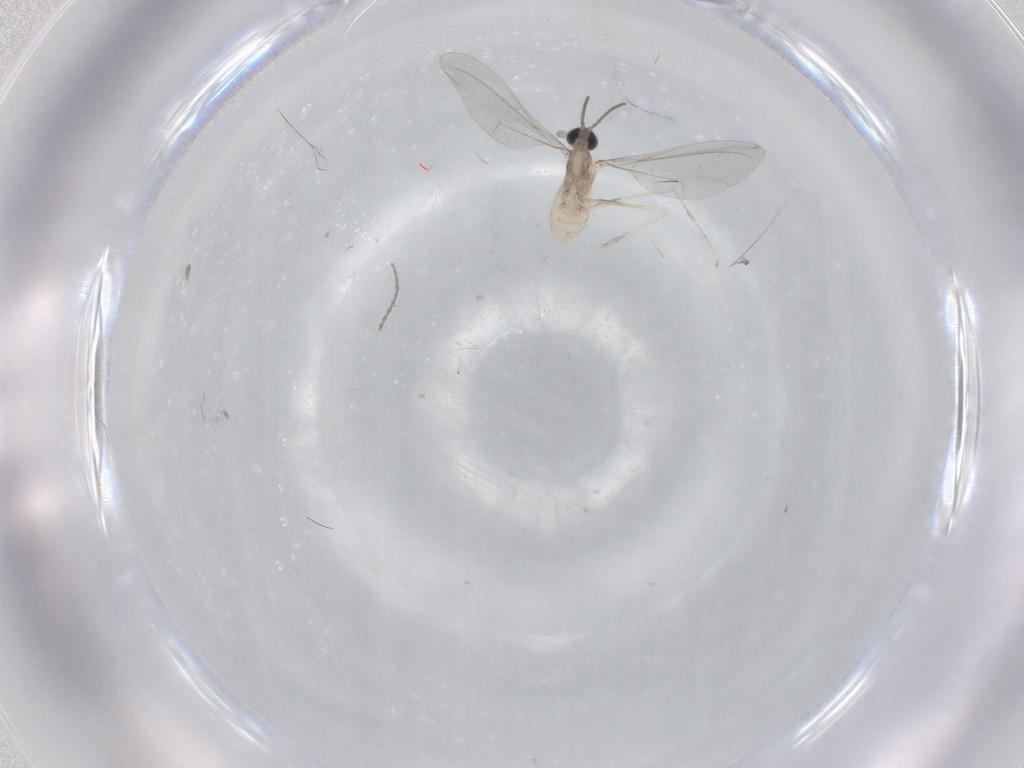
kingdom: Animalia
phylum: Arthropoda
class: Insecta
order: Diptera
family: Cecidomyiidae
